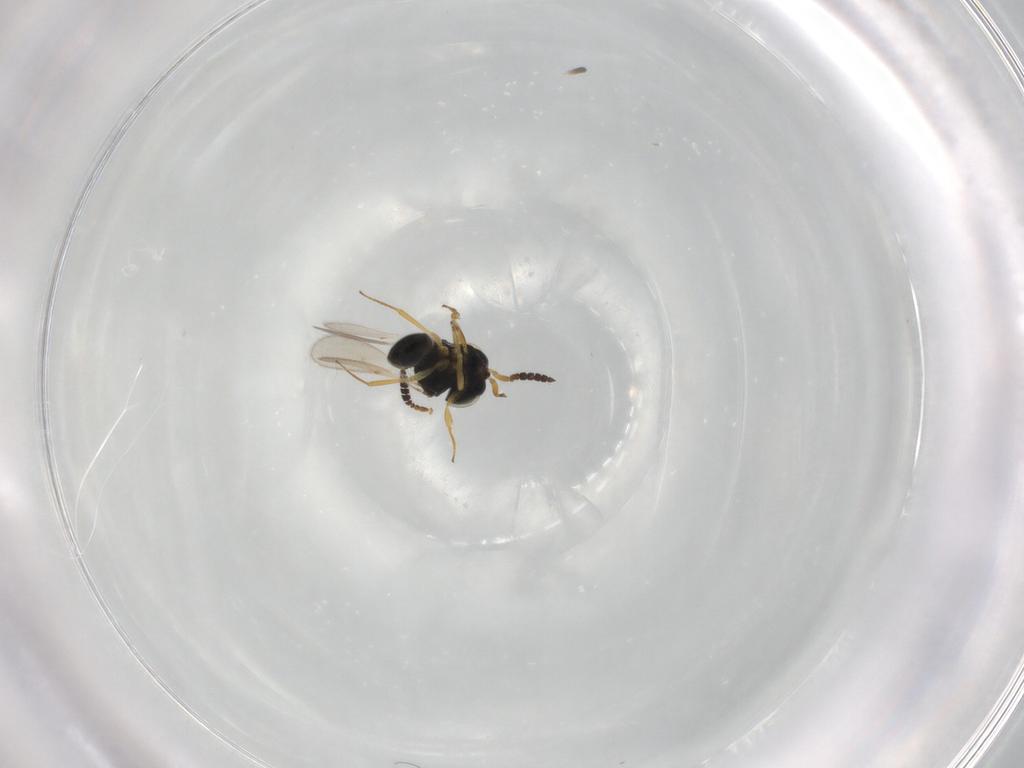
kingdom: Animalia
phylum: Arthropoda
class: Insecta
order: Hymenoptera
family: Scelionidae
